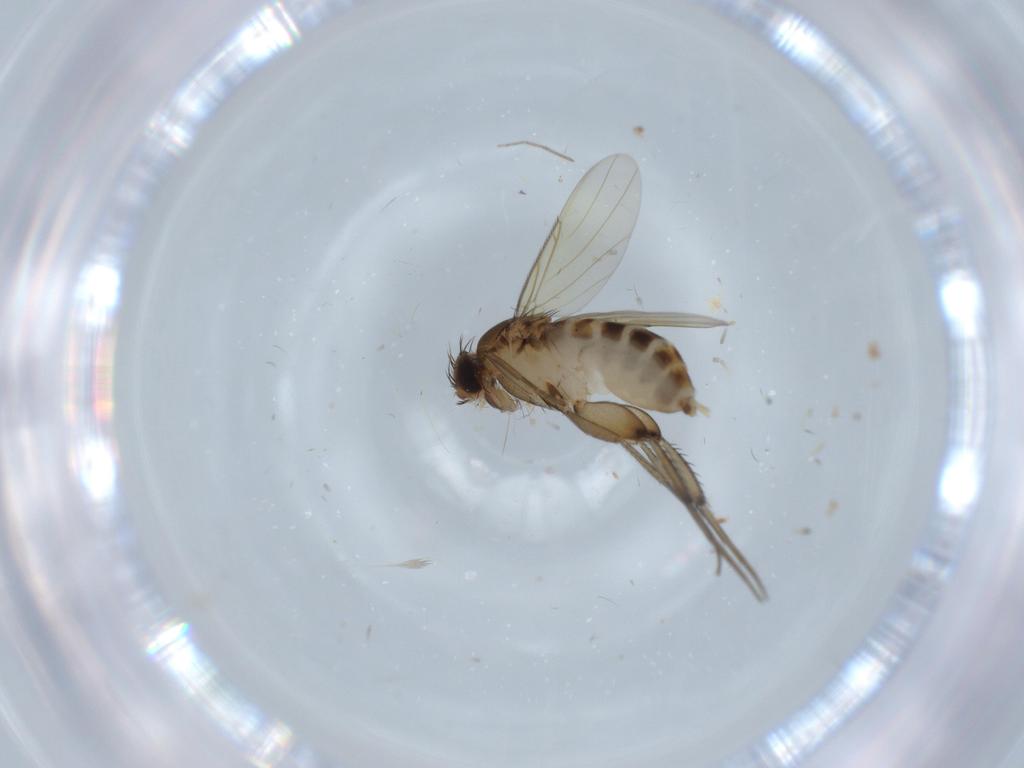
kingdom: Animalia
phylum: Arthropoda
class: Insecta
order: Diptera
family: Phoridae
